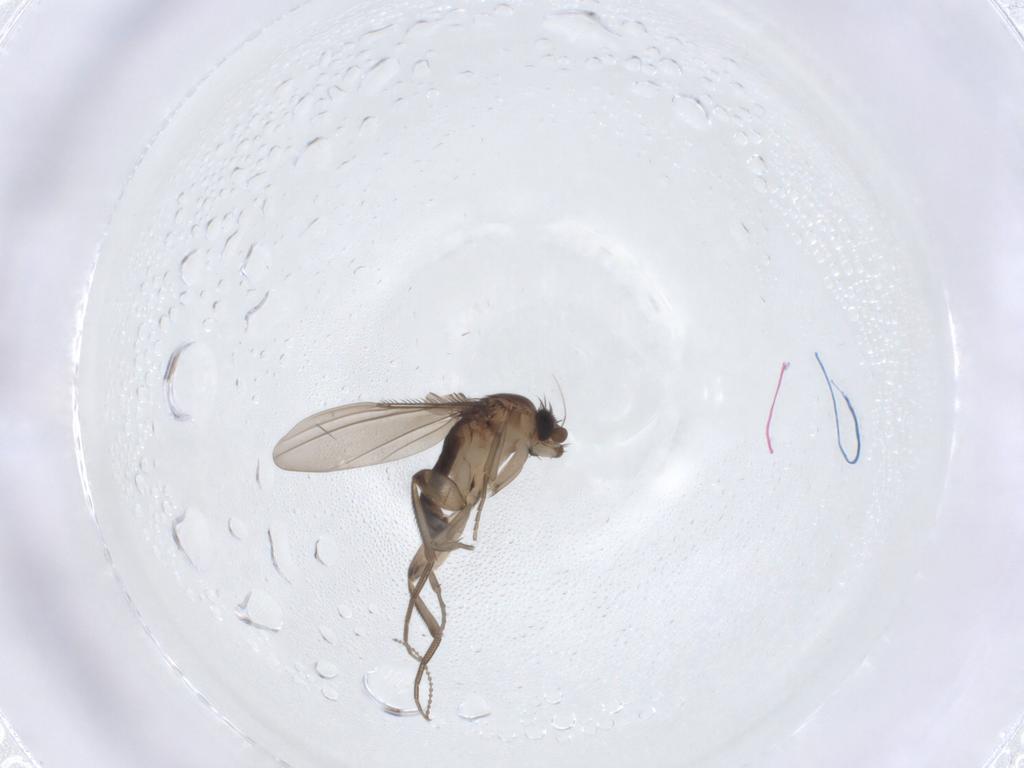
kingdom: Animalia
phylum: Arthropoda
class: Insecta
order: Diptera
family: Phoridae
